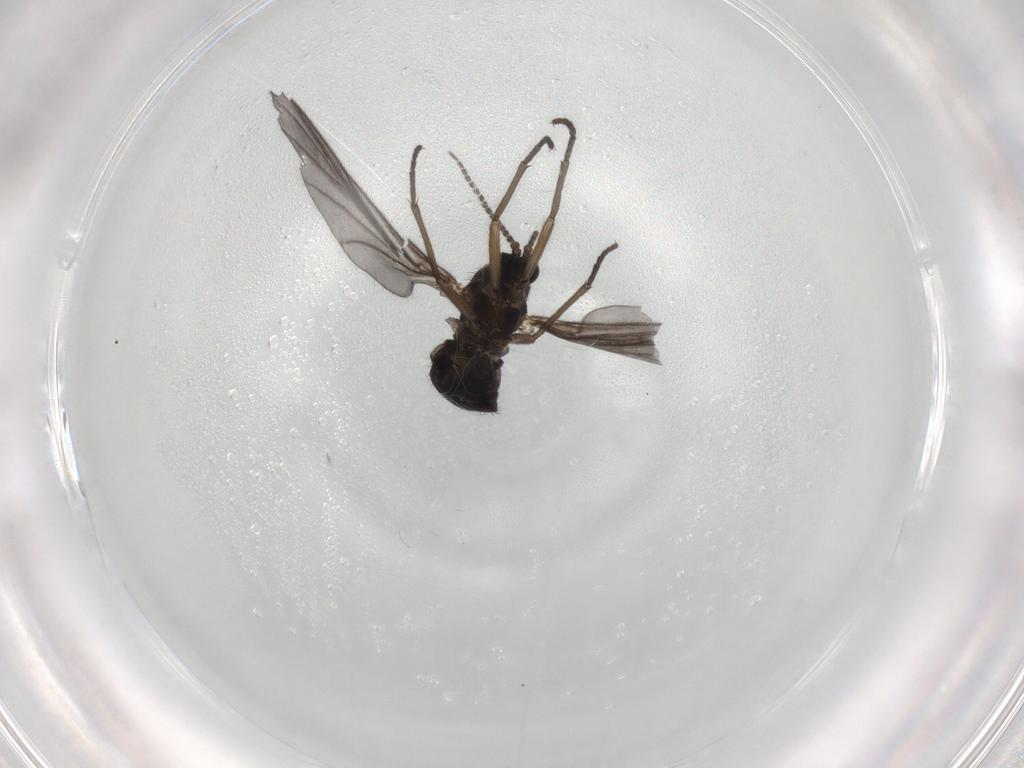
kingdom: Animalia
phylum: Arthropoda
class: Insecta
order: Diptera
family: Sciaridae
